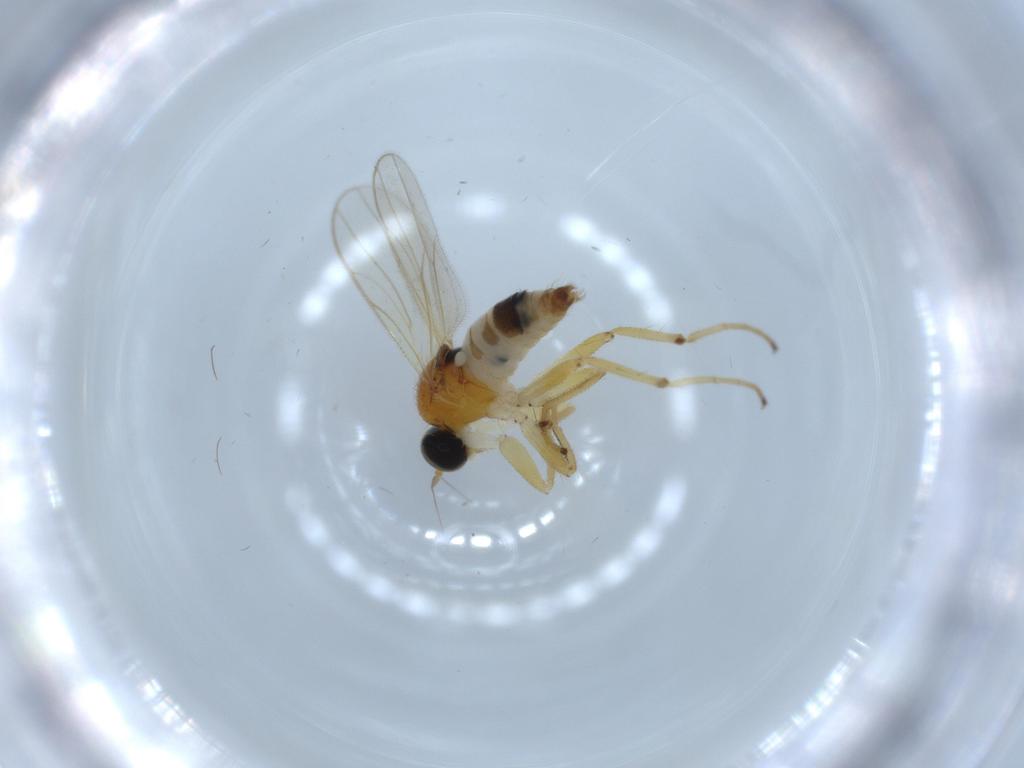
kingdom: Animalia
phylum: Arthropoda
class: Insecta
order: Diptera
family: Hybotidae
